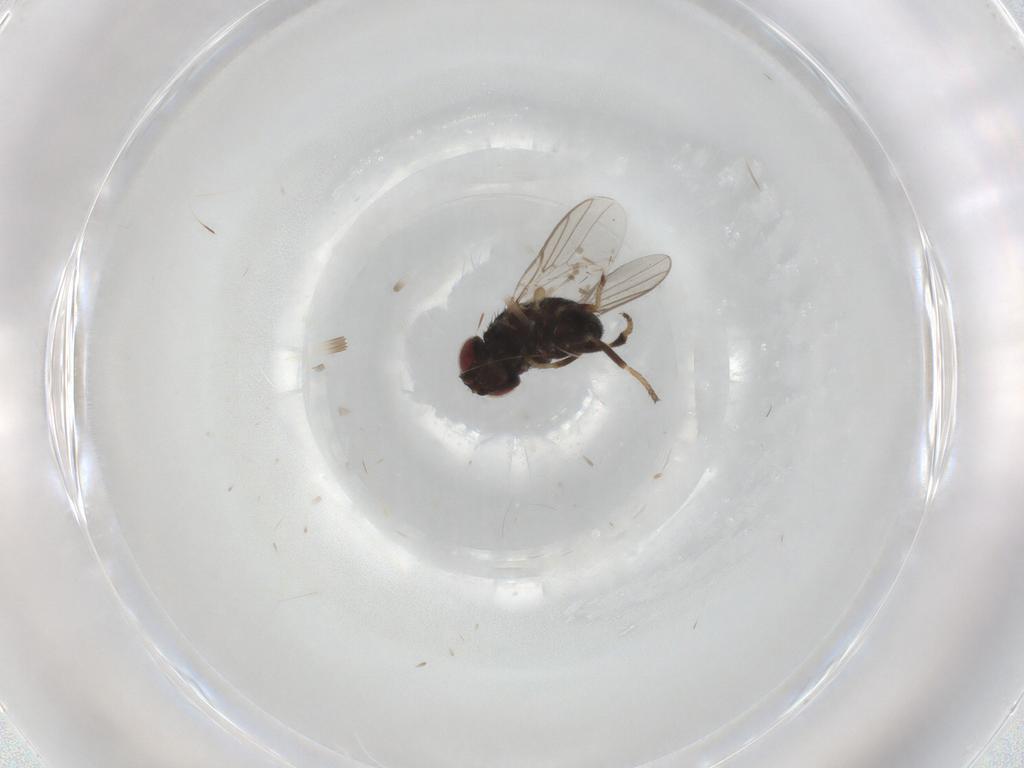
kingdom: Animalia
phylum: Arthropoda
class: Insecta
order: Diptera
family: Chloropidae
